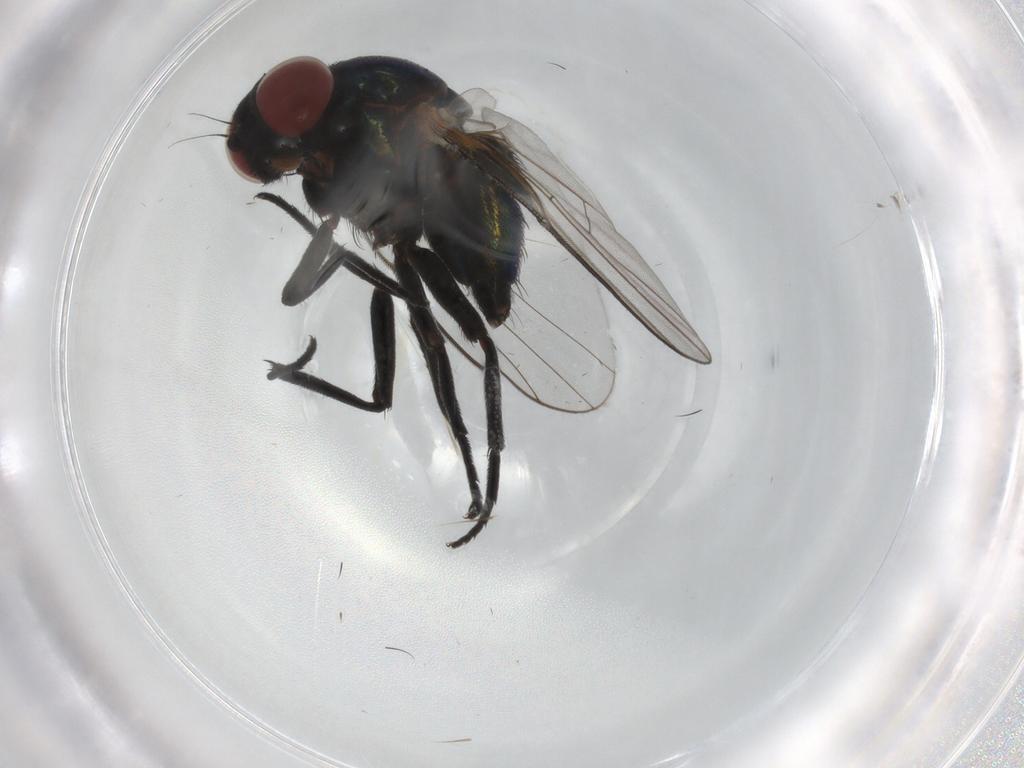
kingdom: Animalia
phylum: Arthropoda
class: Insecta
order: Diptera
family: Agromyzidae
